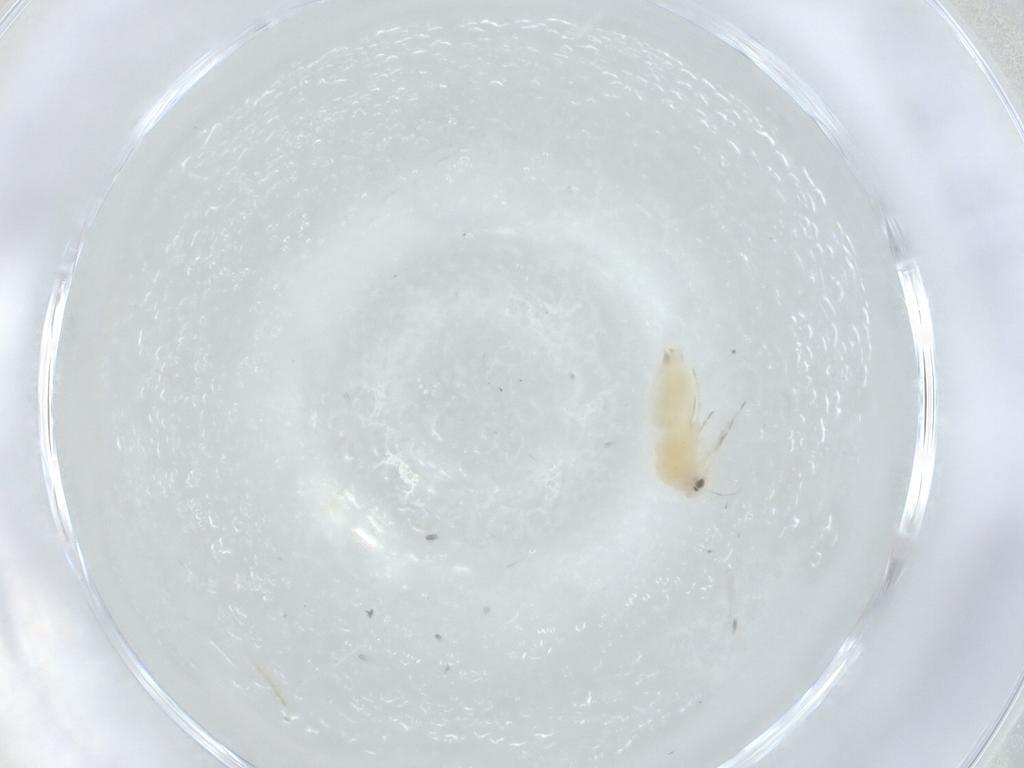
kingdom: Animalia
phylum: Arthropoda
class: Insecta
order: Hemiptera
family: Aleyrodidae
